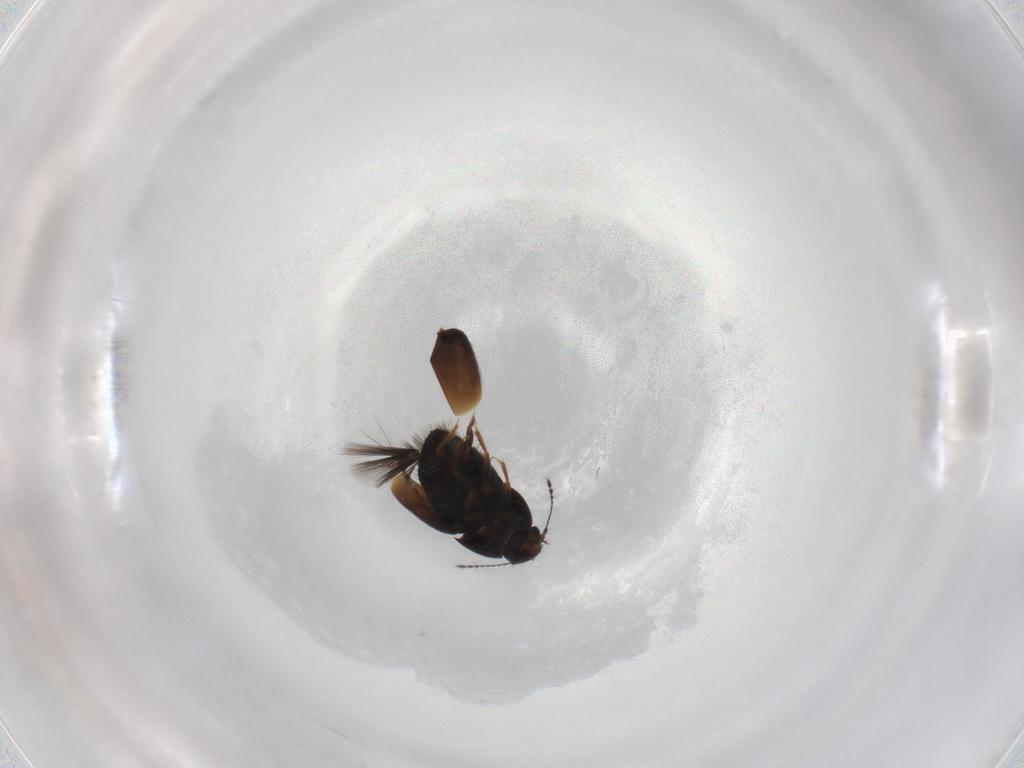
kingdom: Animalia
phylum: Arthropoda
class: Insecta
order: Coleoptera
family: Ptiliidae
